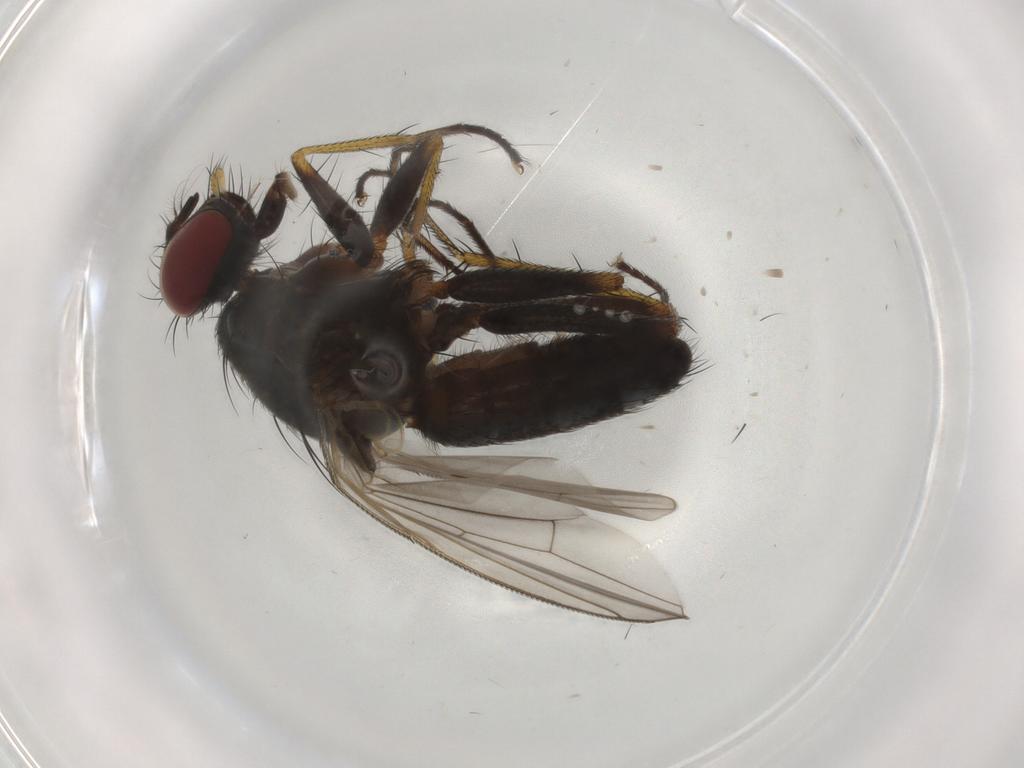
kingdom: Animalia
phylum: Arthropoda
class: Insecta
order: Diptera
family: Muscidae
